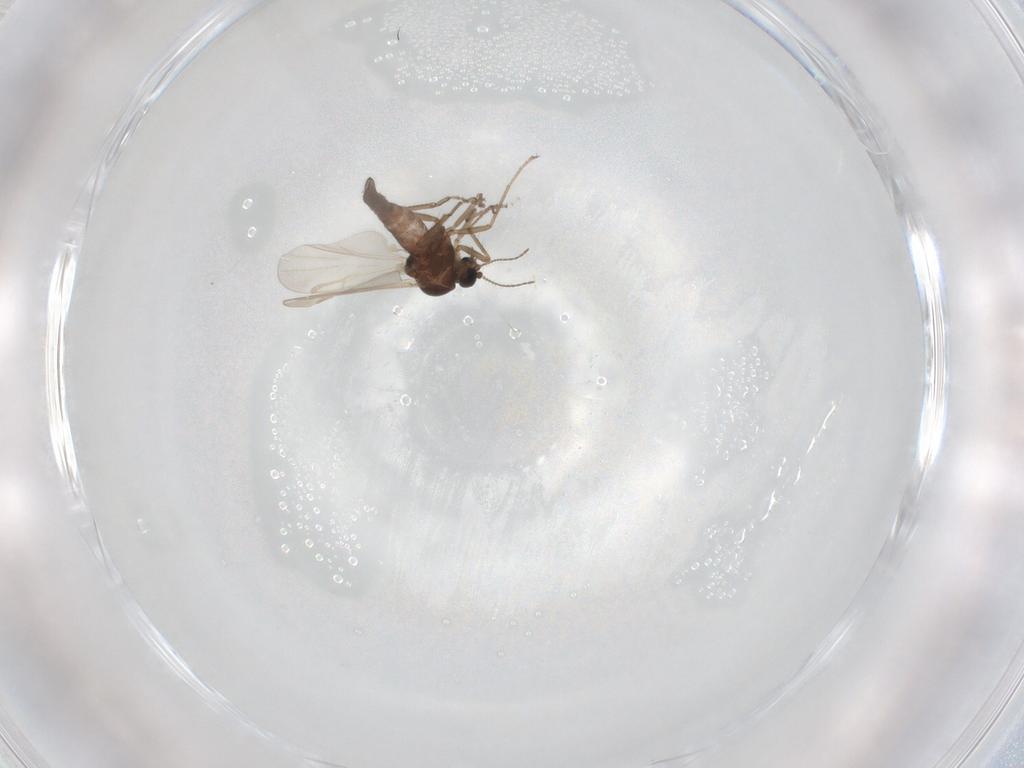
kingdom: Animalia
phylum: Arthropoda
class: Insecta
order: Diptera
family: Ceratopogonidae
